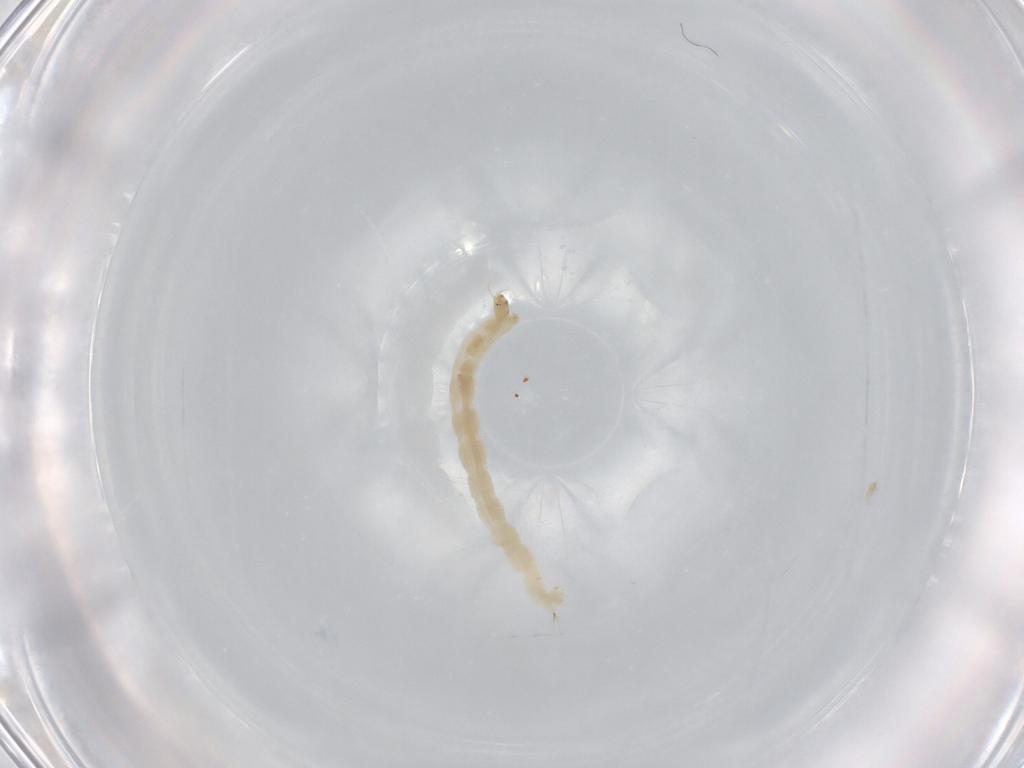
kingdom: Animalia
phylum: Arthropoda
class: Insecta
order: Diptera
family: Chironomidae
